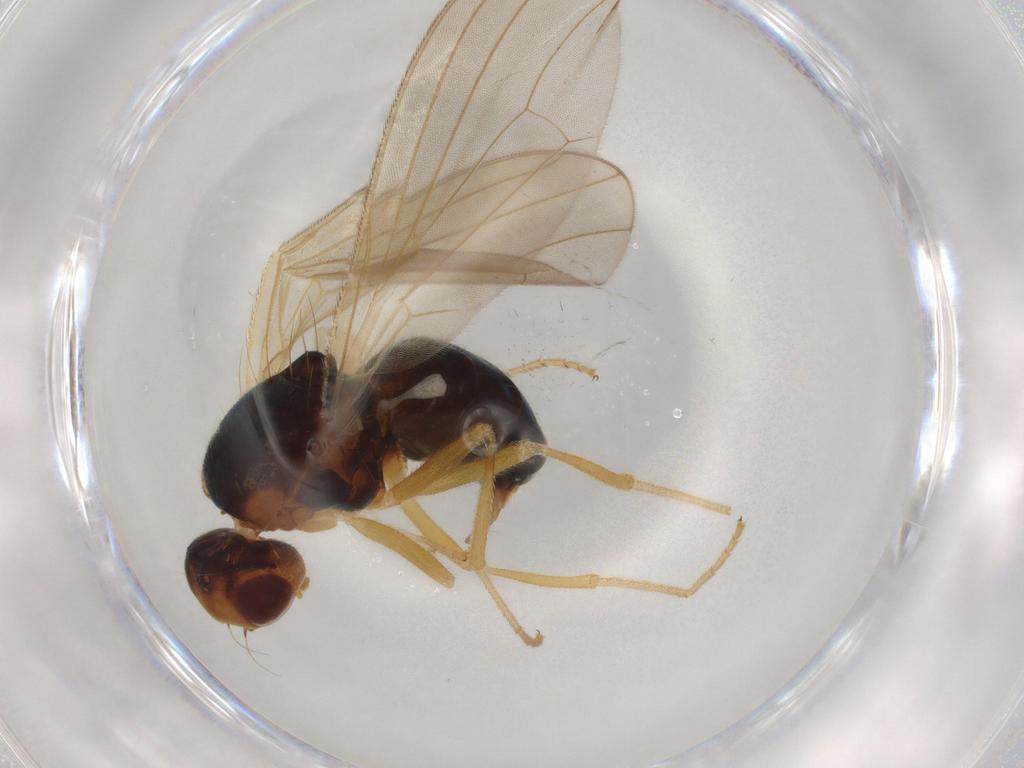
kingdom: Animalia
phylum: Arthropoda
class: Insecta
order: Diptera
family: Psilidae
